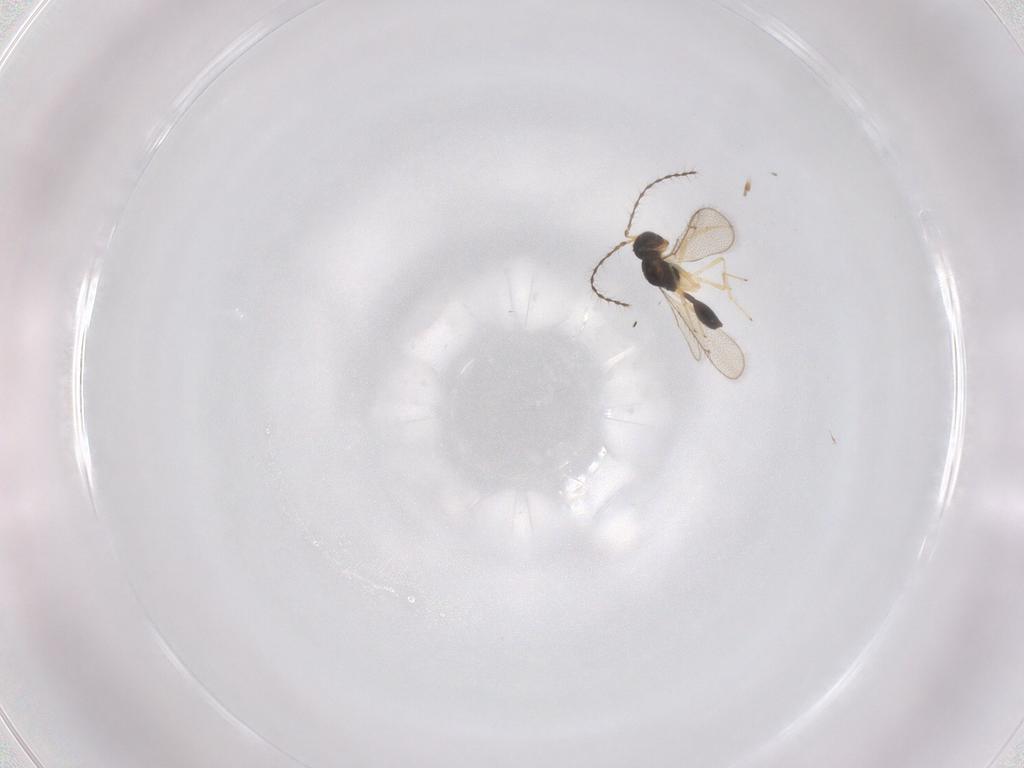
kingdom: Animalia
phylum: Arthropoda
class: Insecta
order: Hymenoptera
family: Diparidae
